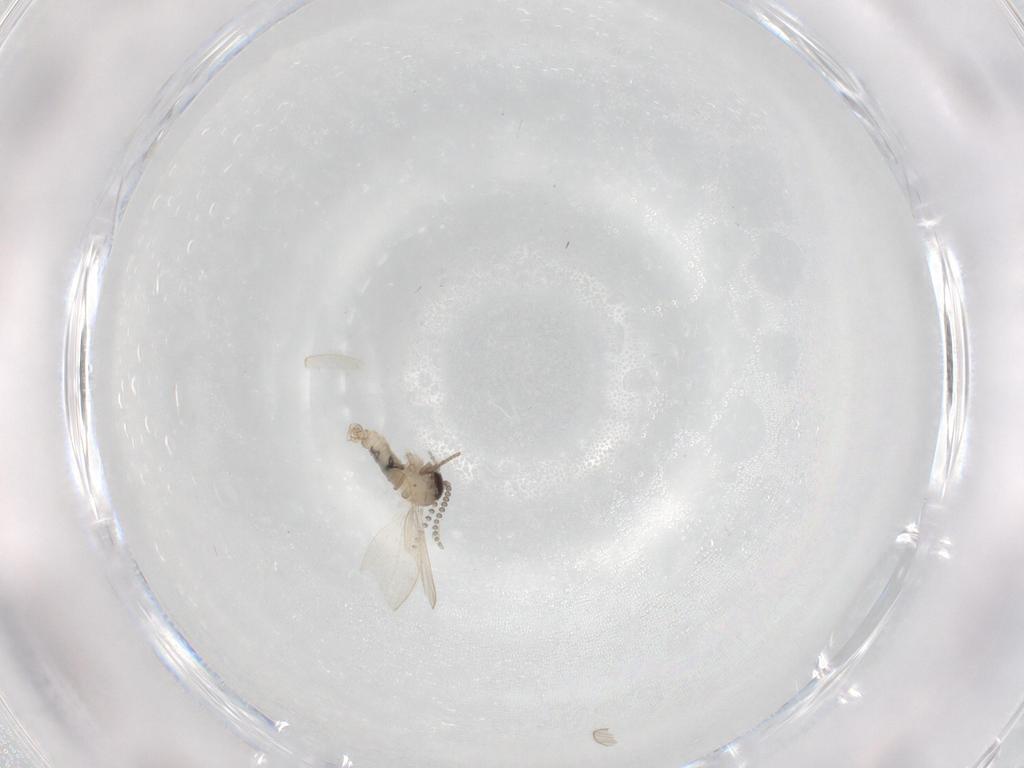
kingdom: Animalia
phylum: Arthropoda
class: Insecta
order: Diptera
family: Psychodidae
